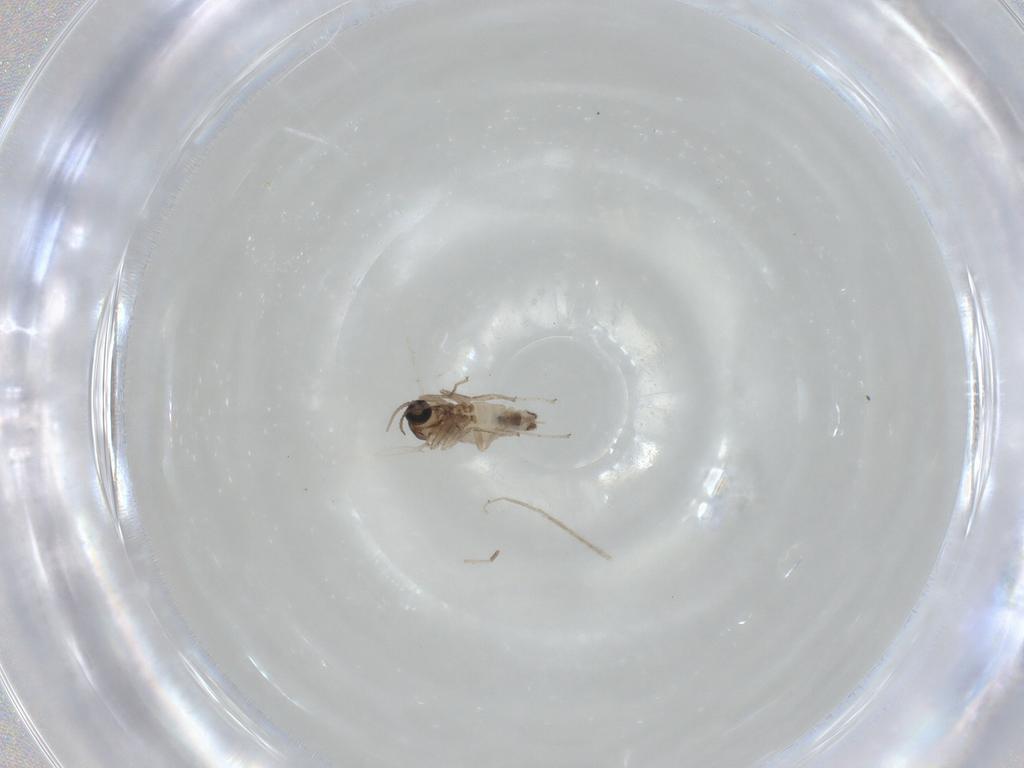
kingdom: Animalia
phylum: Arthropoda
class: Insecta
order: Diptera
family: Cecidomyiidae
